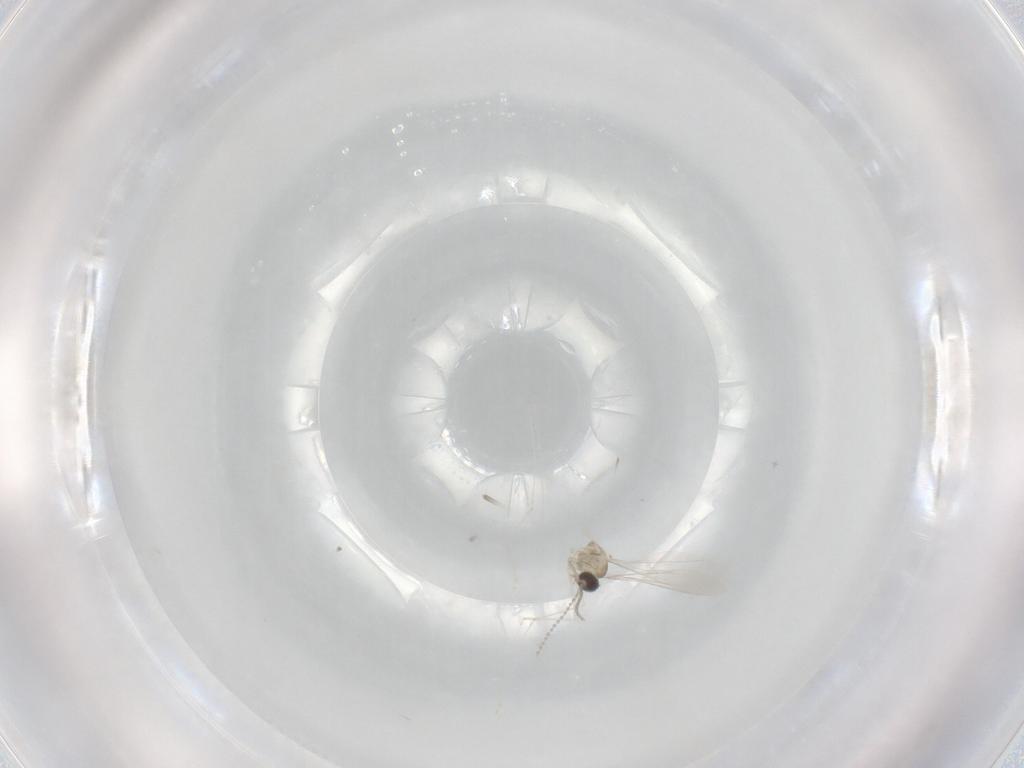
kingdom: Animalia
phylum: Arthropoda
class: Insecta
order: Diptera
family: Cecidomyiidae
